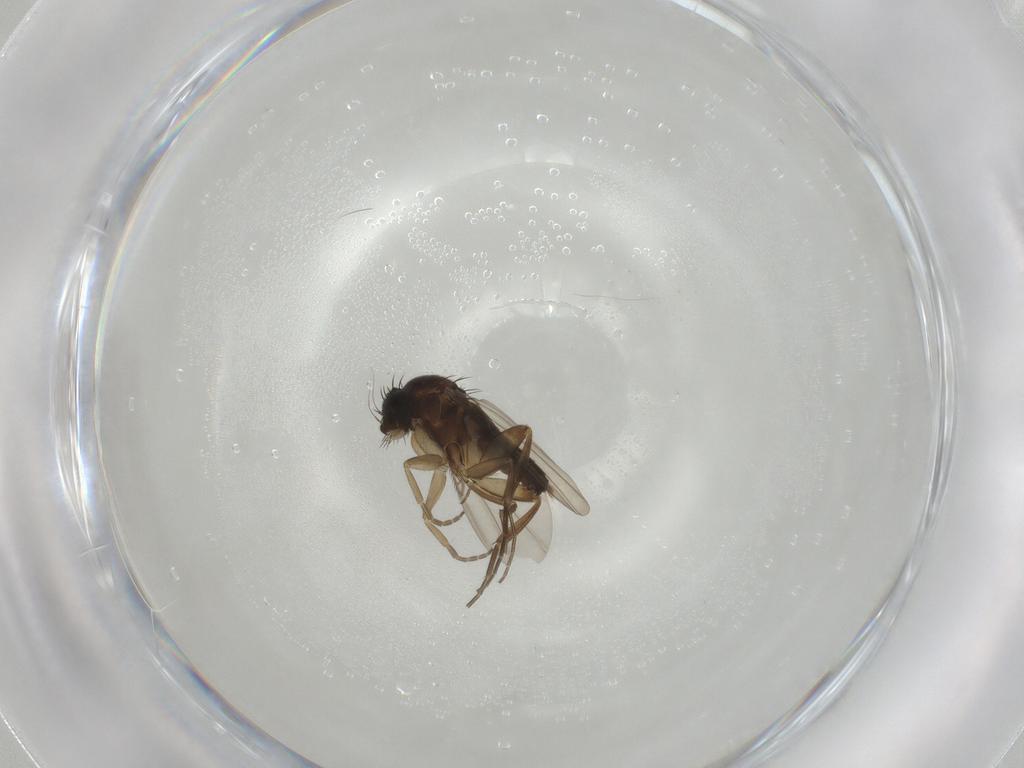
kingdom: Animalia
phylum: Arthropoda
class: Insecta
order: Diptera
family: Phoridae
